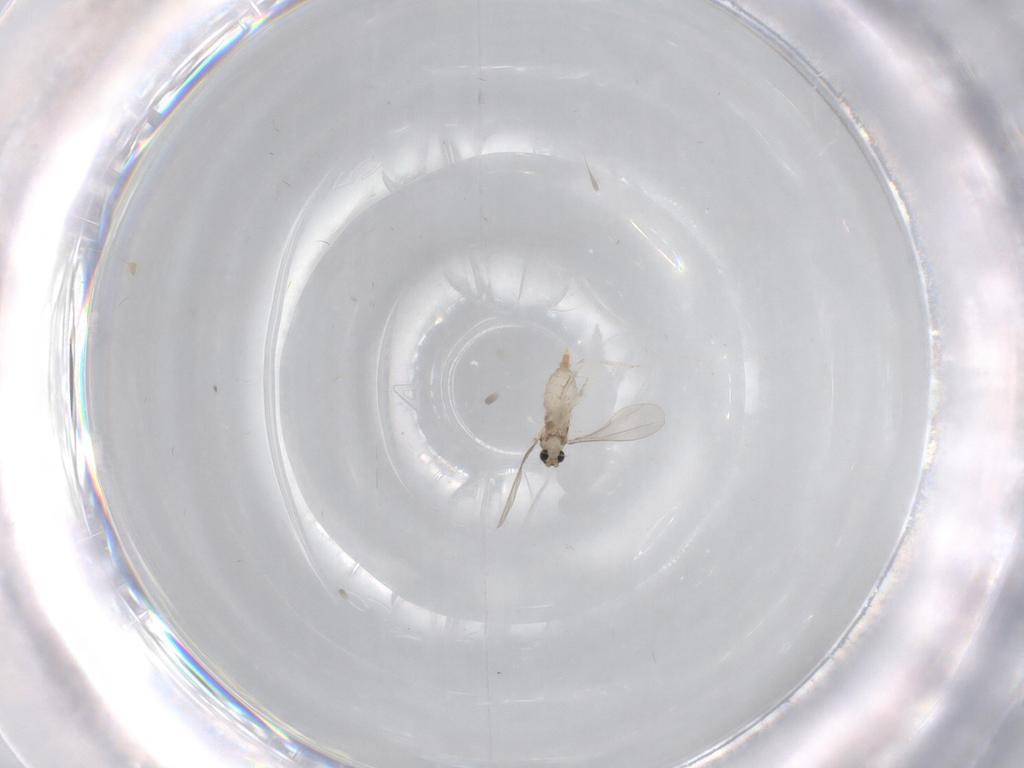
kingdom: Animalia
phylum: Arthropoda
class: Insecta
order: Diptera
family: Psychodidae
